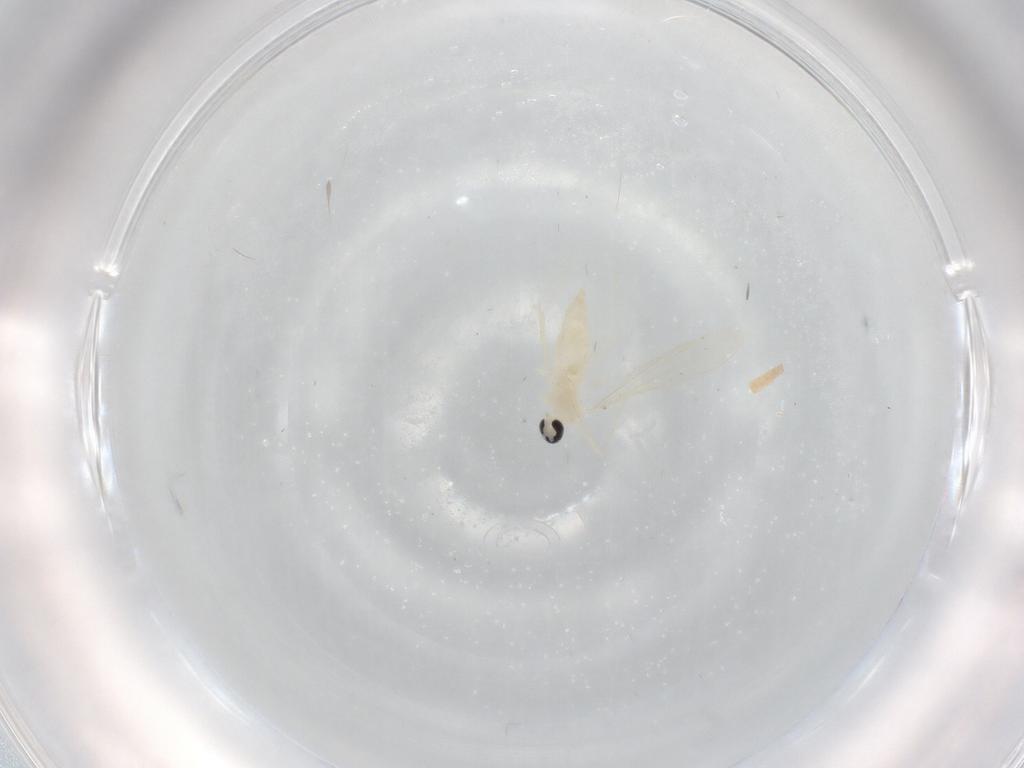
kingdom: Animalia
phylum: Arthropoda
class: Insecta
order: Diptera
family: Cecidomyiidae
